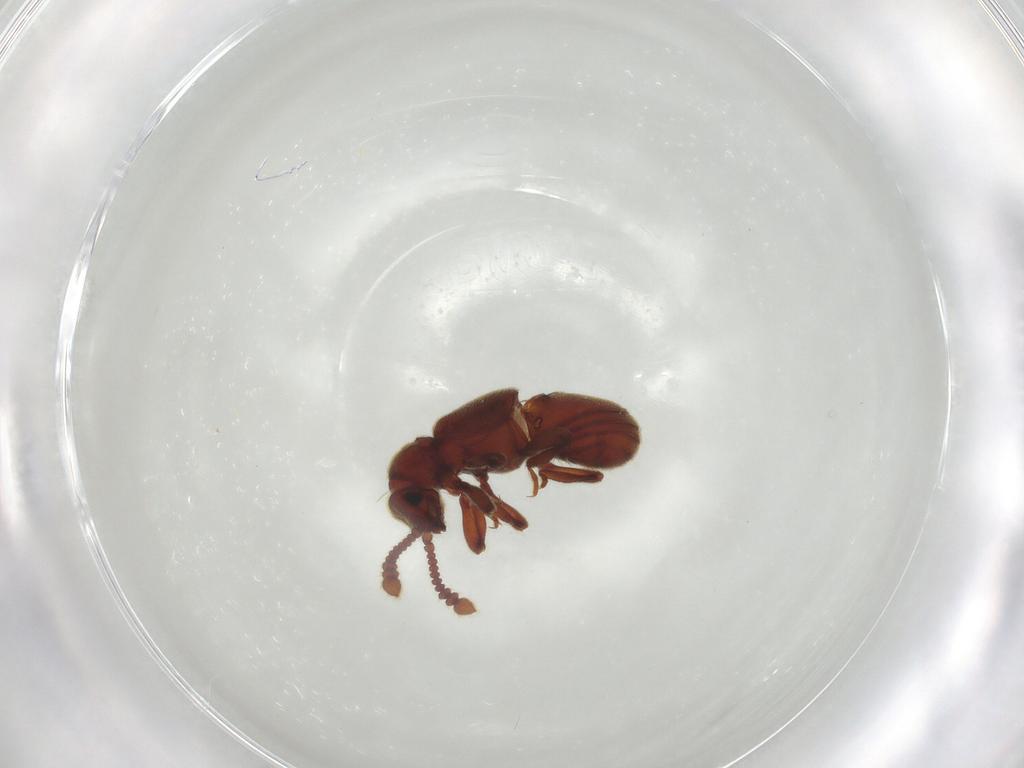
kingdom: Animalia
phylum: Arthropoda
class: Insecta
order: Coleoptera
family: Staphylinidae
